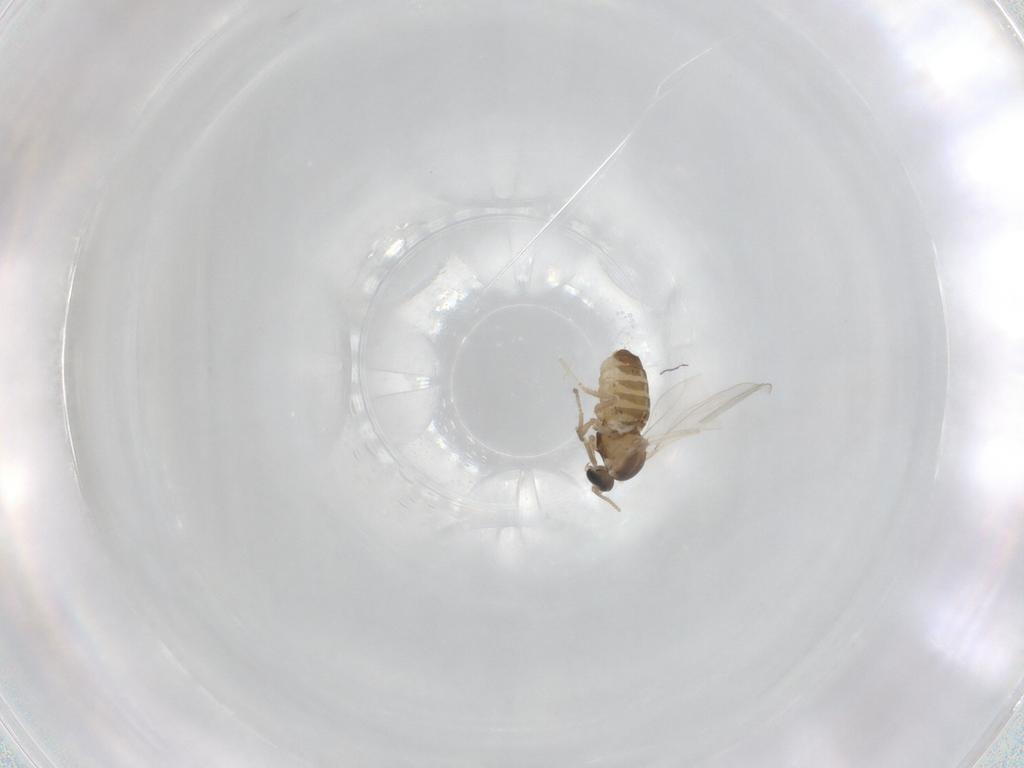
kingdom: Animalia
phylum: Arthropoda
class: Insecta
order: Diptera
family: Cecidomyiidae
